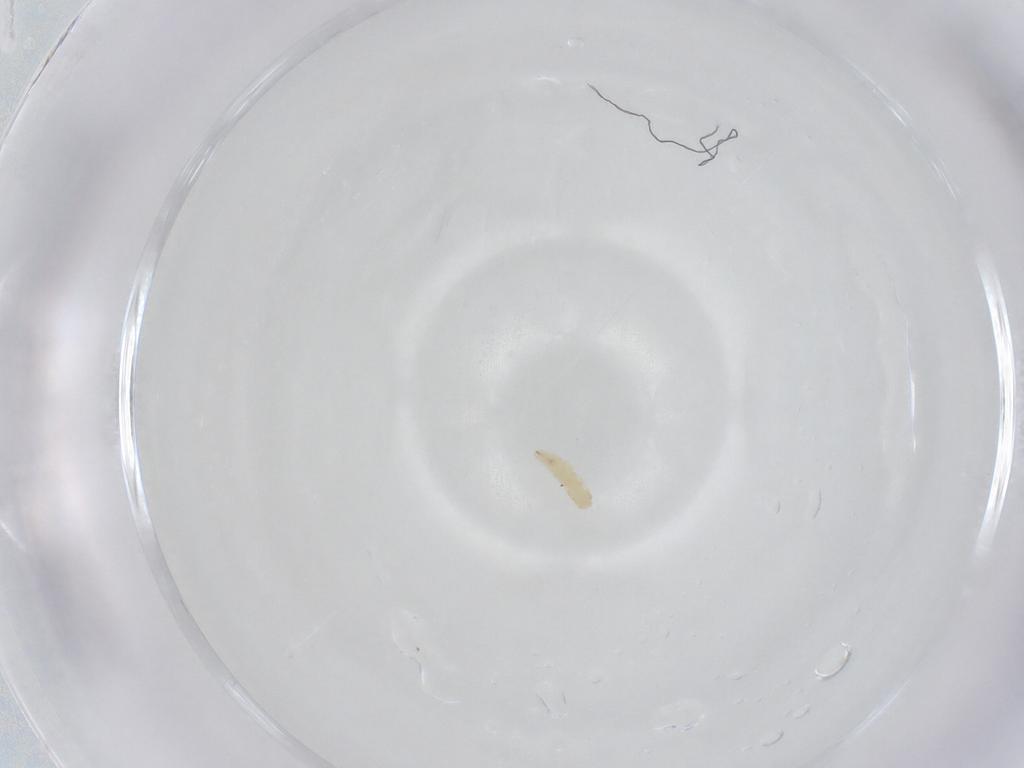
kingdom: Animalia
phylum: Arthropoda
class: Insecta
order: Diptera
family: Sarcophagidae
